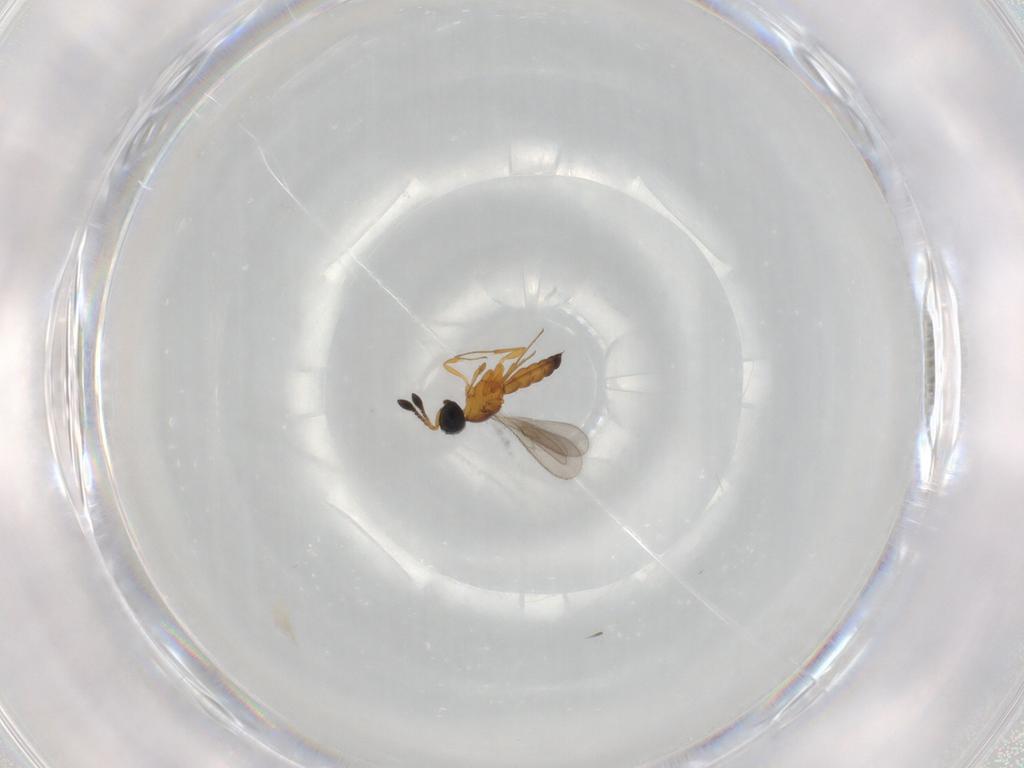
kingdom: Animalia
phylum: Arthropoda
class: Insecta
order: Hymenoptera
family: Scelionidae
